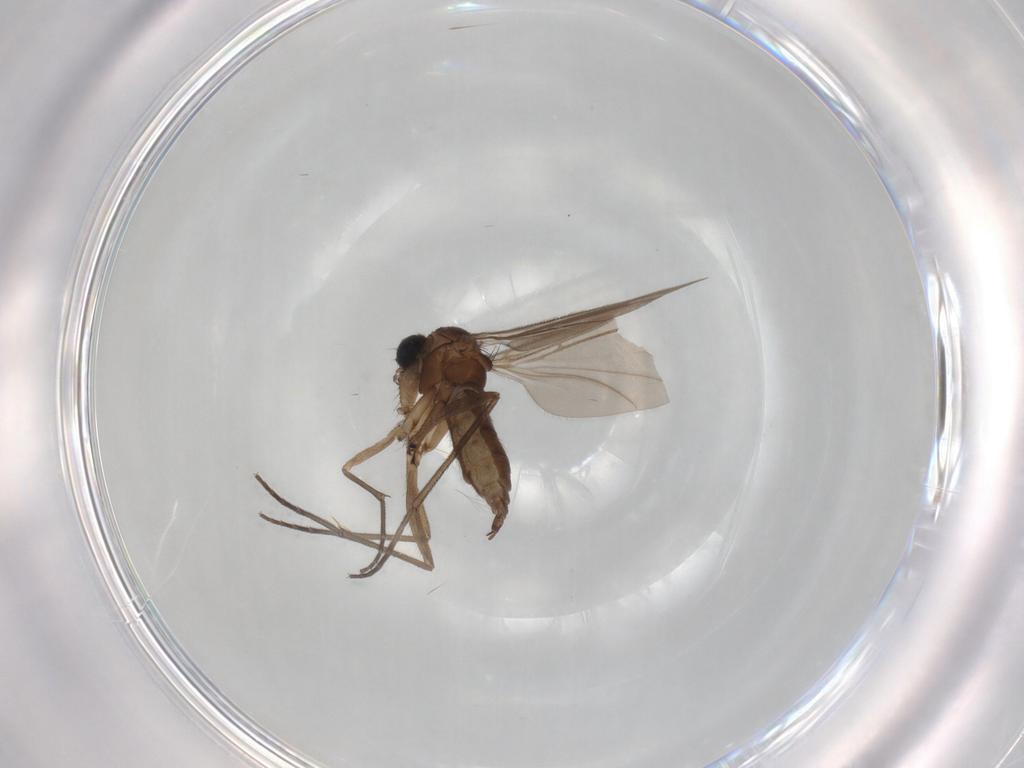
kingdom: Animalia
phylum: Arthropoda
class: Insecta
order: Diptera
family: Sciaridae
